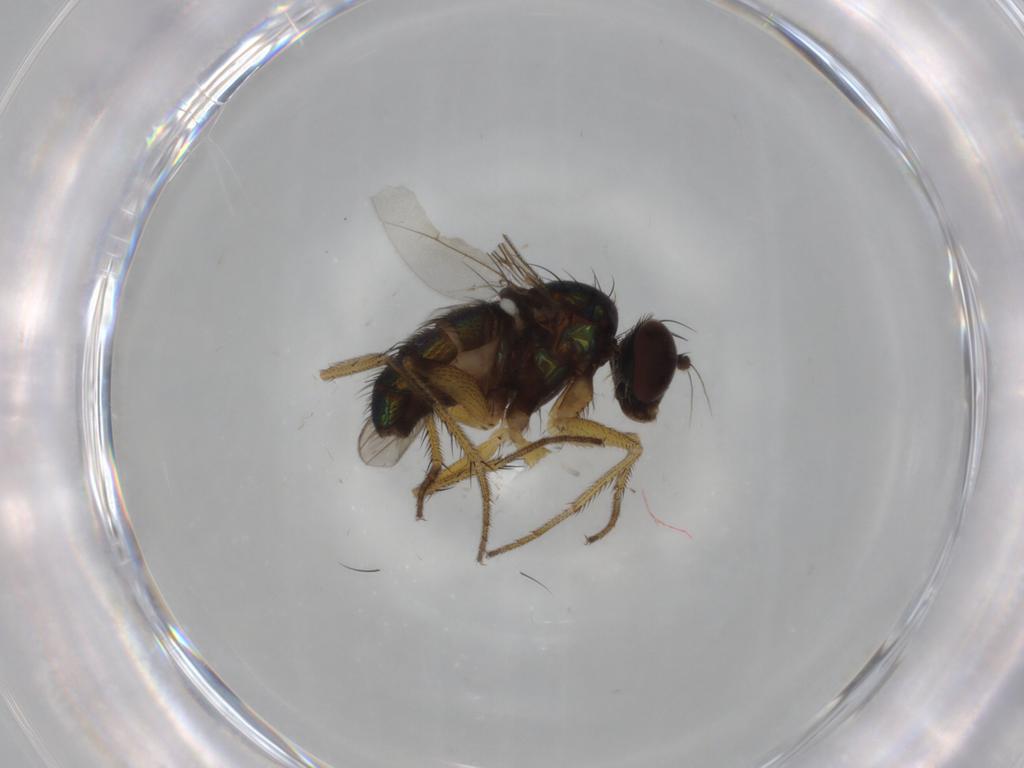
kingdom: Animalia
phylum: Arthropoda
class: Insecta
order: Diptera
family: Dolichopodidae
